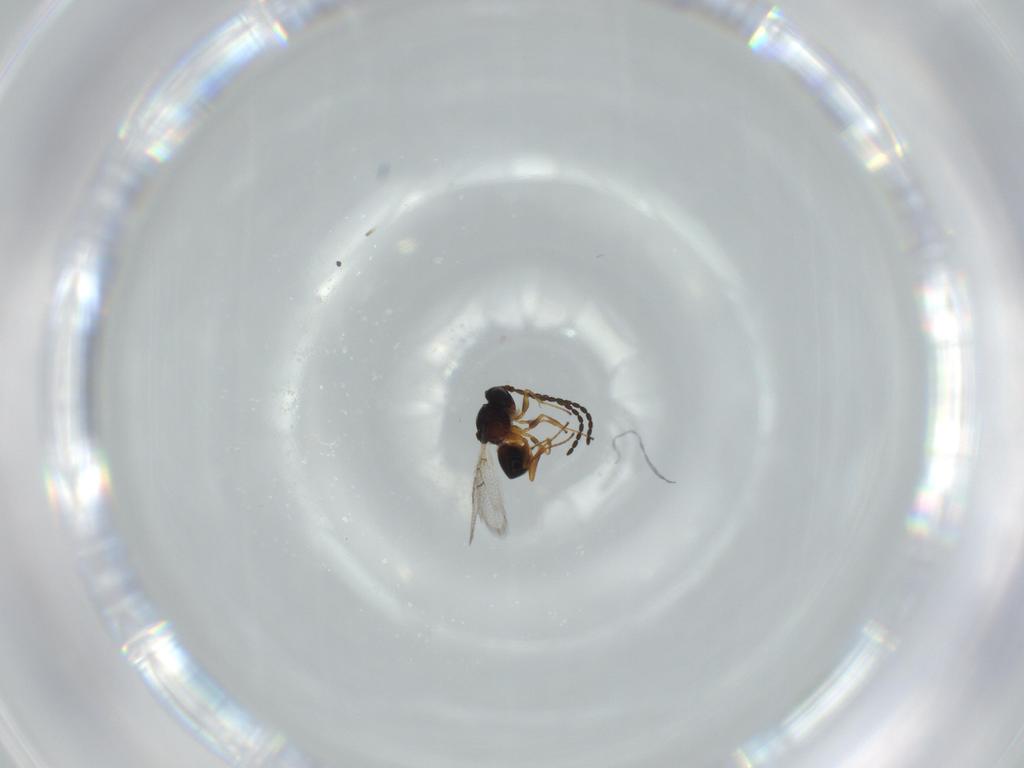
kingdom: Animalia
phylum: Arthropoda
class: Insecta
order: Hymenoptera
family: Figitidae
